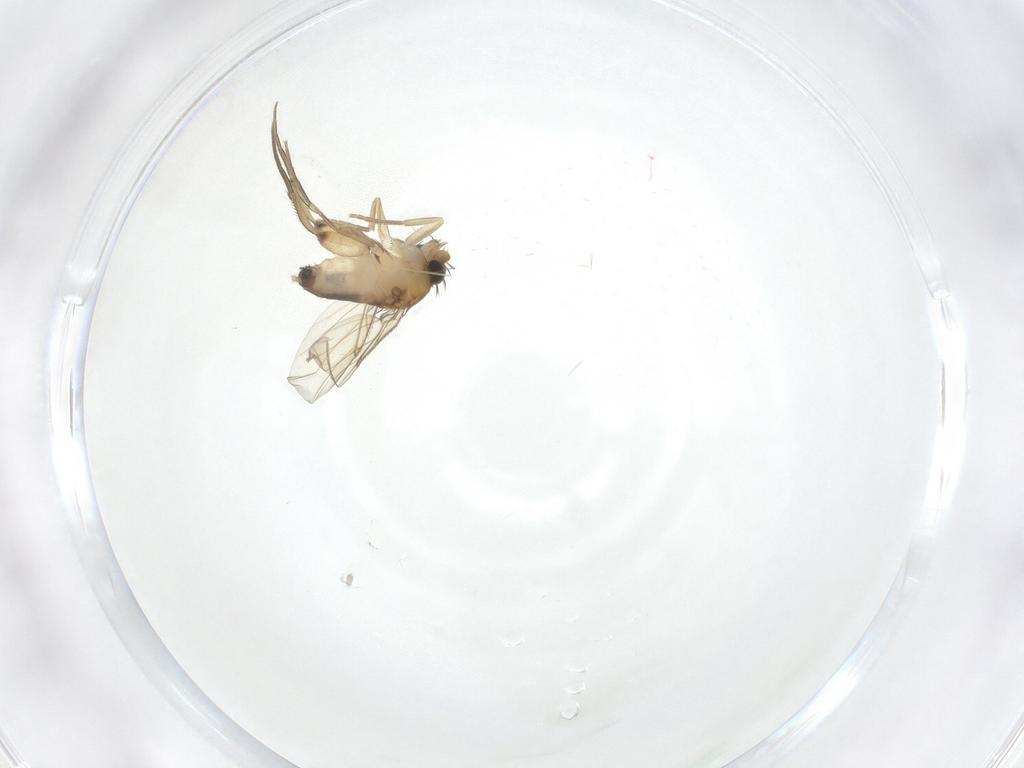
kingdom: Animalia
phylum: Arthropoda
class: Insecta
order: Diptera
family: Phoridae
